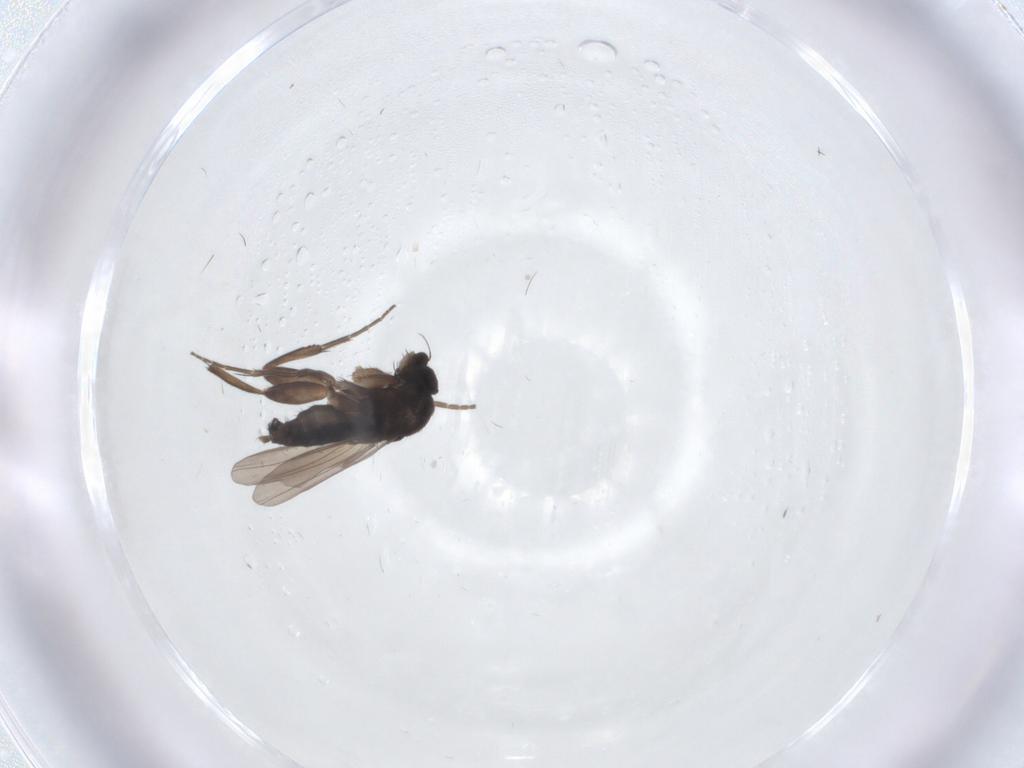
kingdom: Animalia
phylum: Arthropoda
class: Insecta
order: Diptera
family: Phoridae
